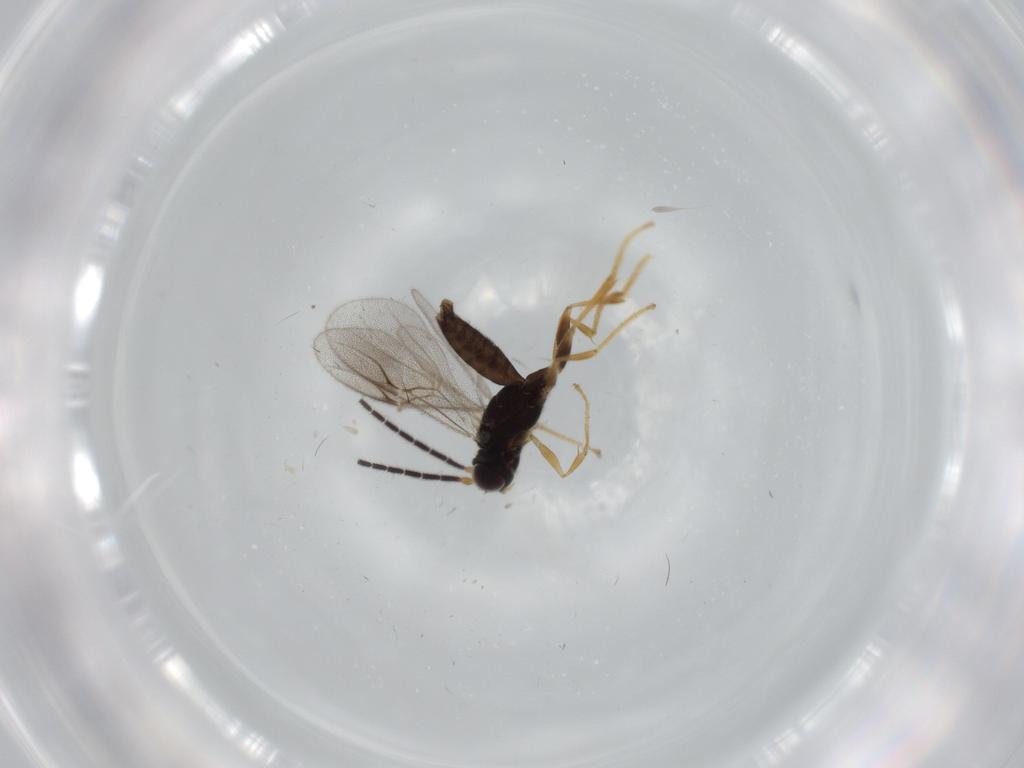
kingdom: Animalia
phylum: Arthropoda
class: Insecta
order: Hymenoptera
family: Dryinidae
